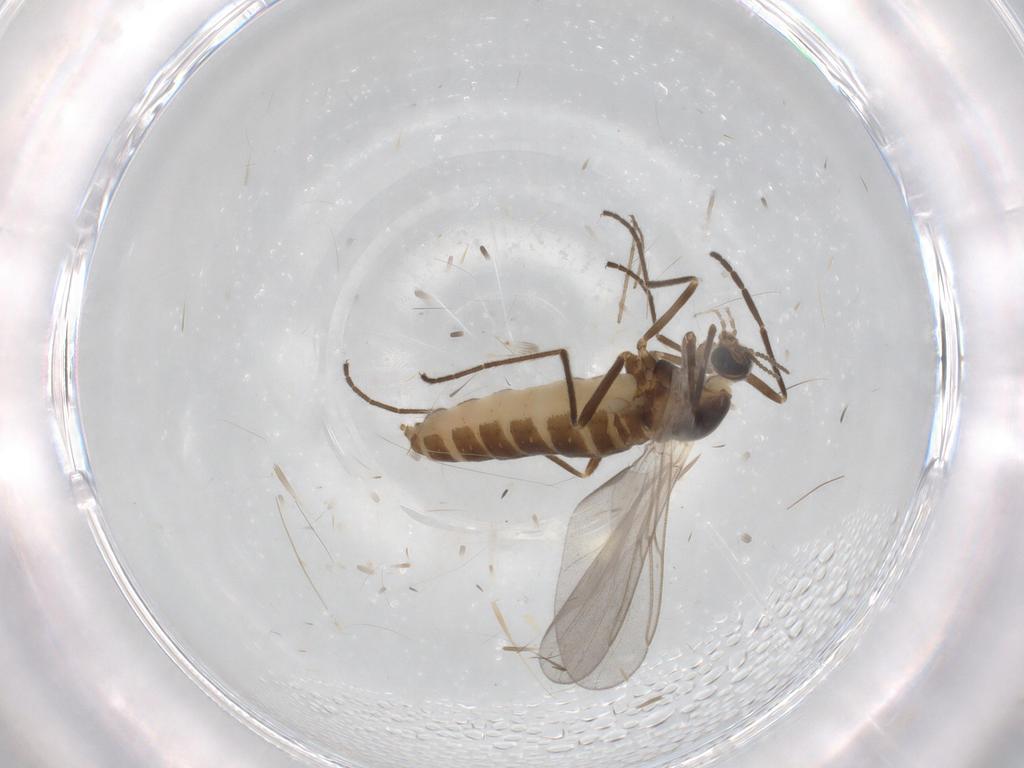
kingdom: Animalia
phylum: Arthropoda
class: Insecta
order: Diptera
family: Cecidomyiidae
